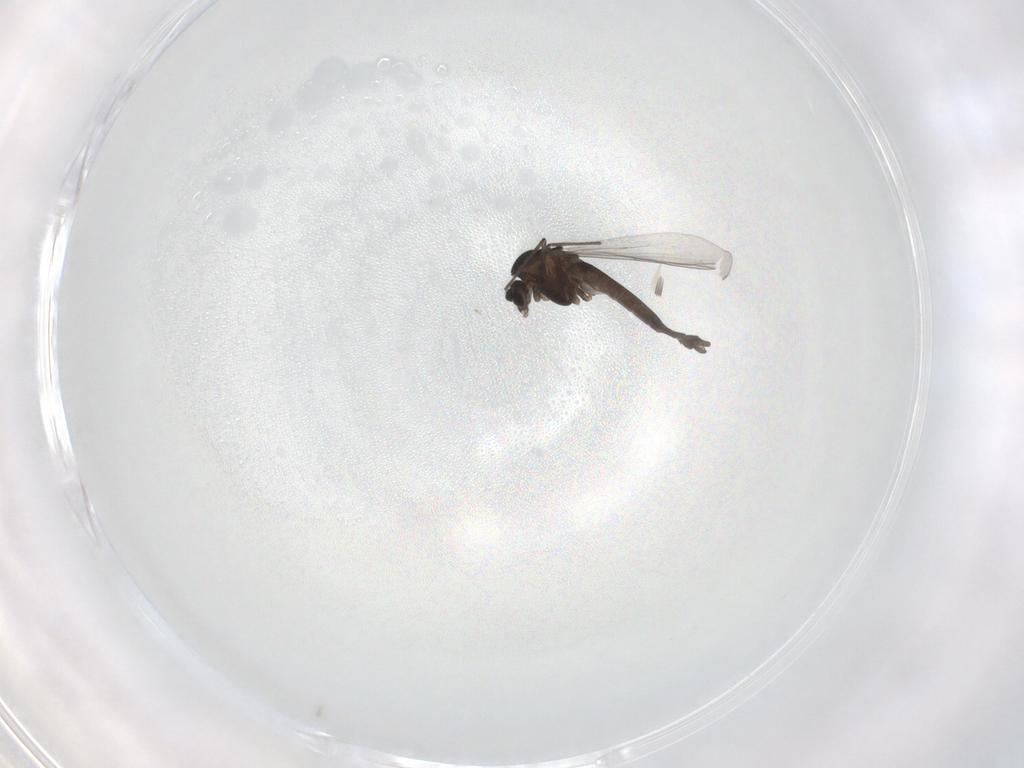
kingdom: Animalia
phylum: Arthropoda
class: Insecta
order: Diptera
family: Chironomidae
